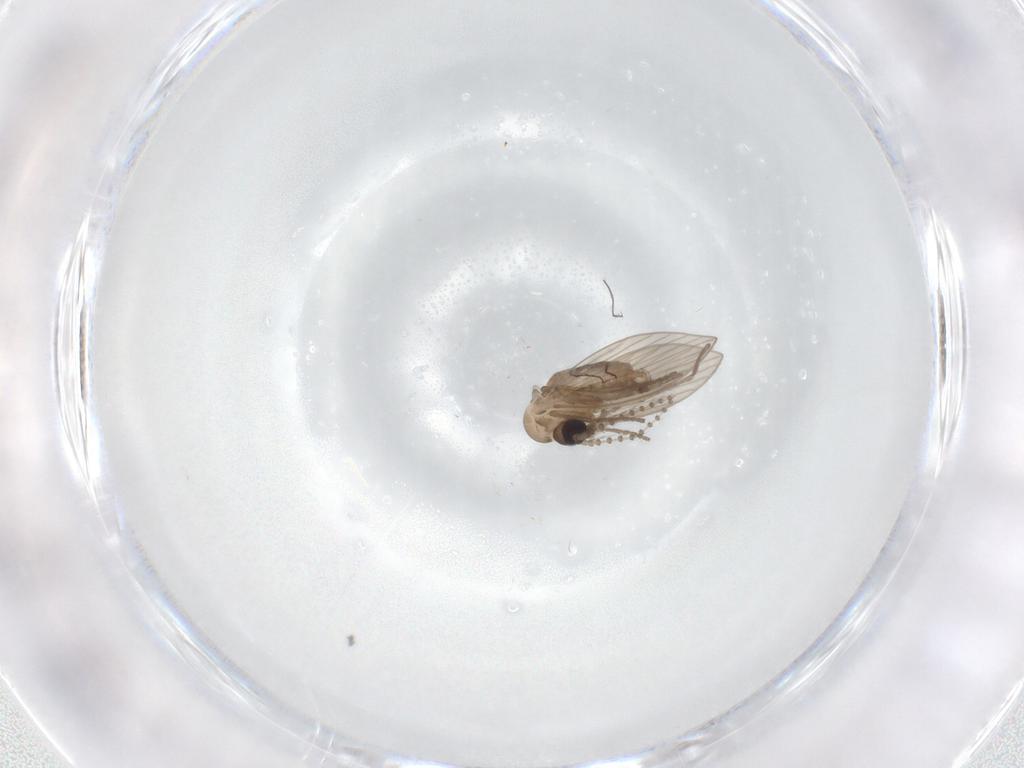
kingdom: Animalia
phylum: Arthropoda
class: Insecta
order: Diptera
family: Psychodidae
